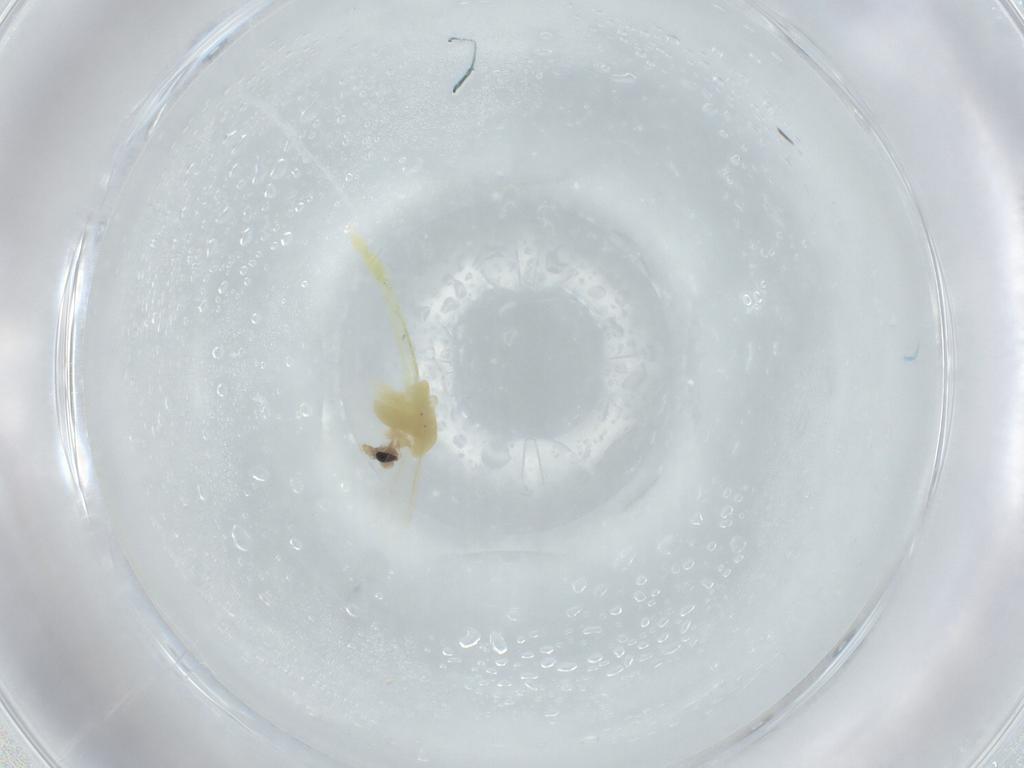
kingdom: Animalia
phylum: Arthropoda
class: Insecta
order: Diptera
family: Chironomidae
